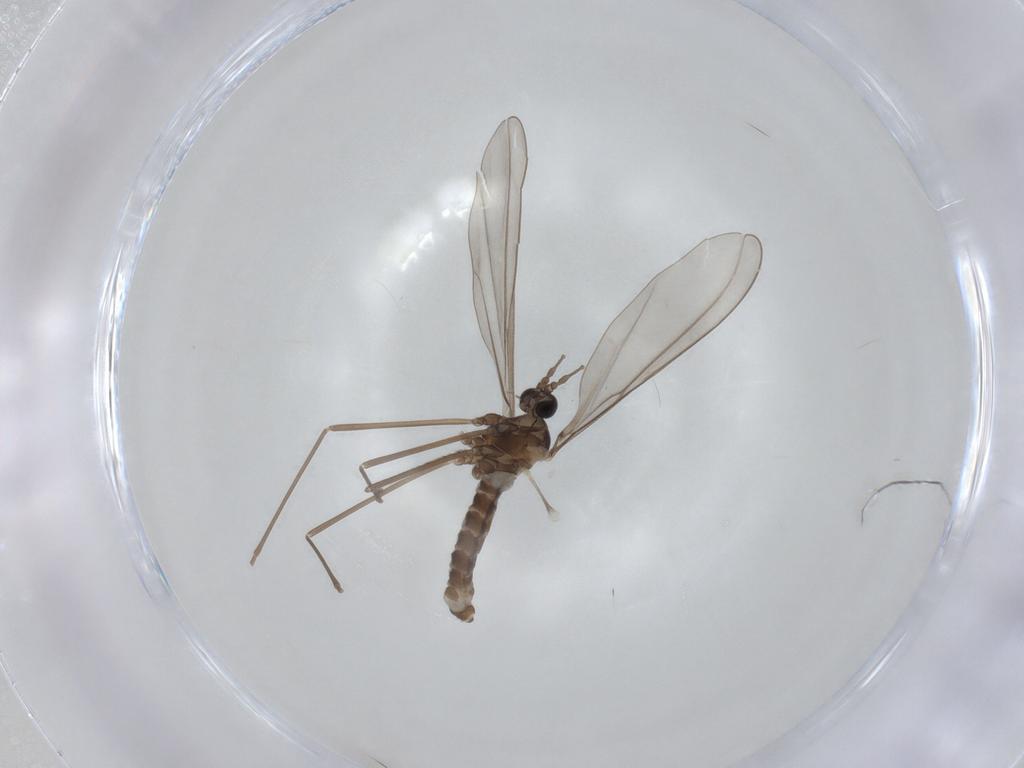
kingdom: Animalia
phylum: Arthropoda
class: Insecta
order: Diptera
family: Cecidomyiidae
